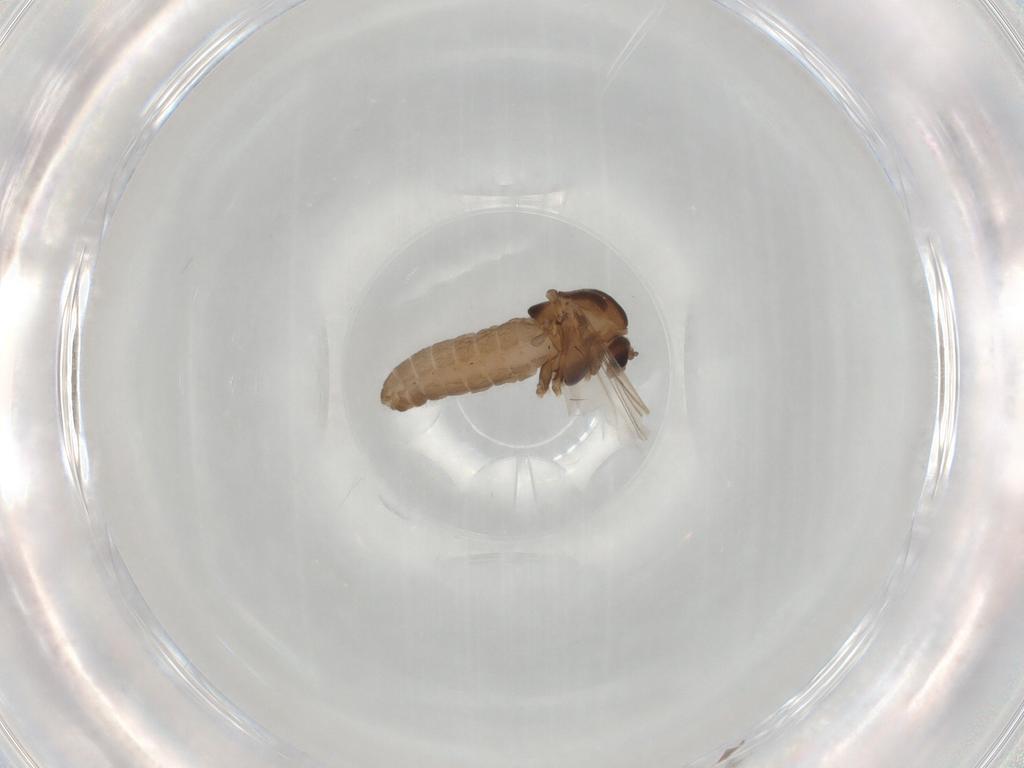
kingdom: Animalia
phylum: Arthropoda
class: Insecta
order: Diptera
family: Chironomidae
